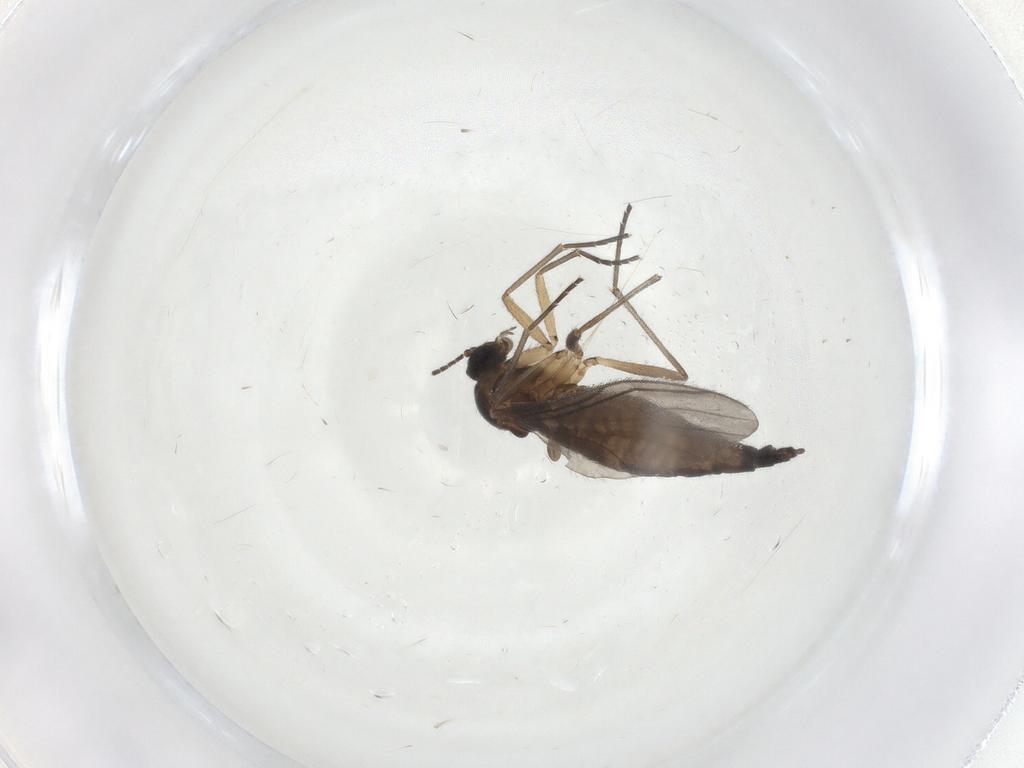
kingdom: Animalia
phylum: Arthropoda
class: Insecta
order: Diptera
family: Sciaridae
